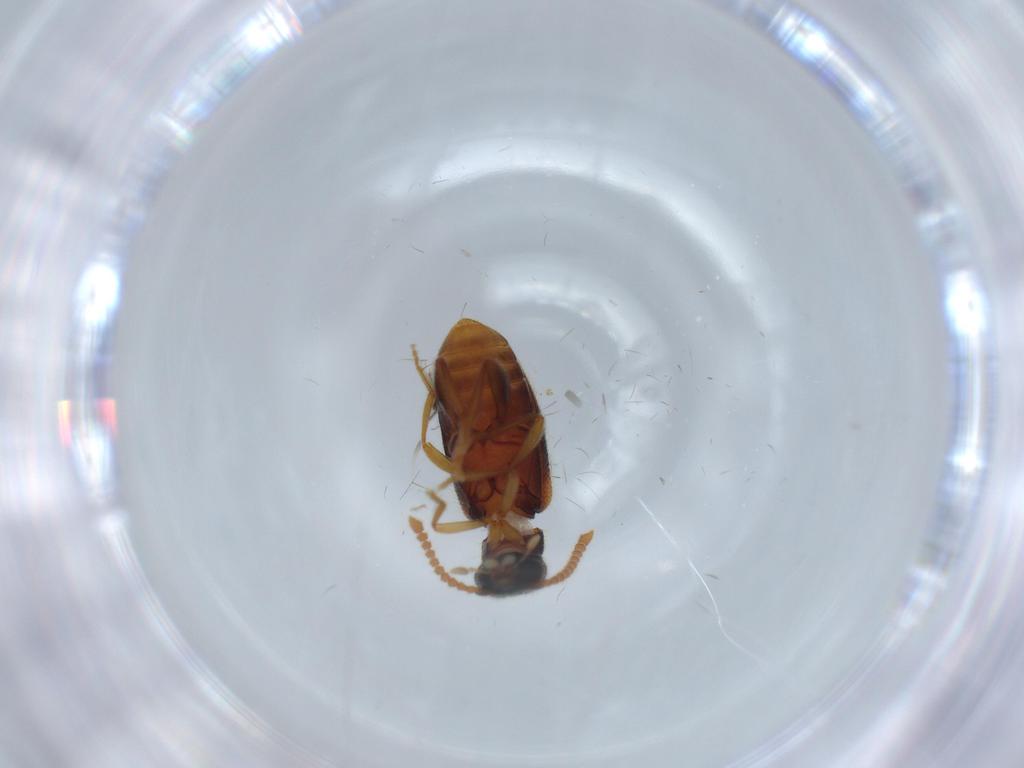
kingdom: Animalia
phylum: Arthropoda
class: Insecta
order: Coleoptera
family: Aderidae
